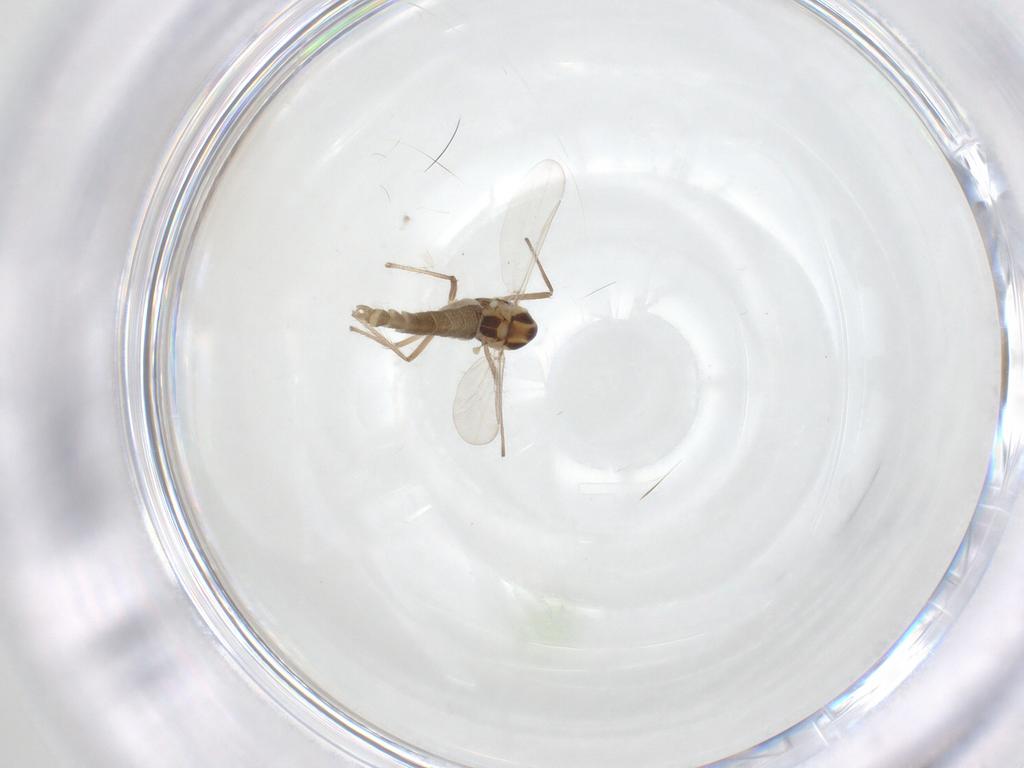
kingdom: Animalia
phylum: Arthropoda
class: Insecta
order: Diptera
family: Chironomidae
